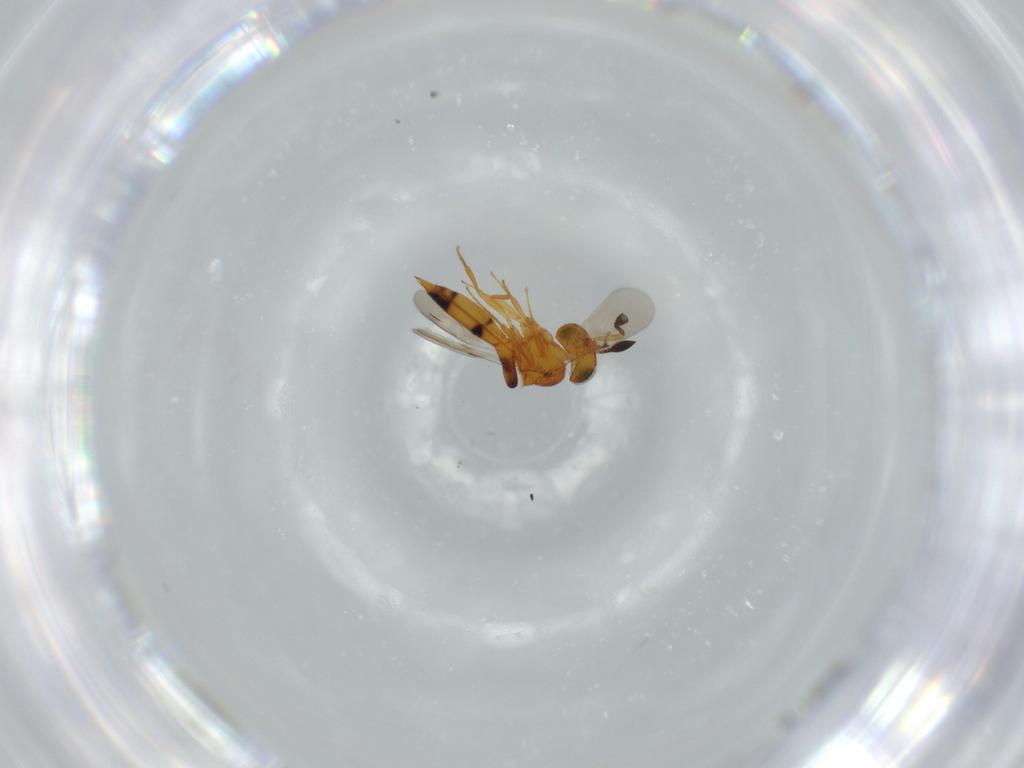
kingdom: Animalia
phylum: Arthropoda
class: Insecta
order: Hymenoptera
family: Scelionidae
